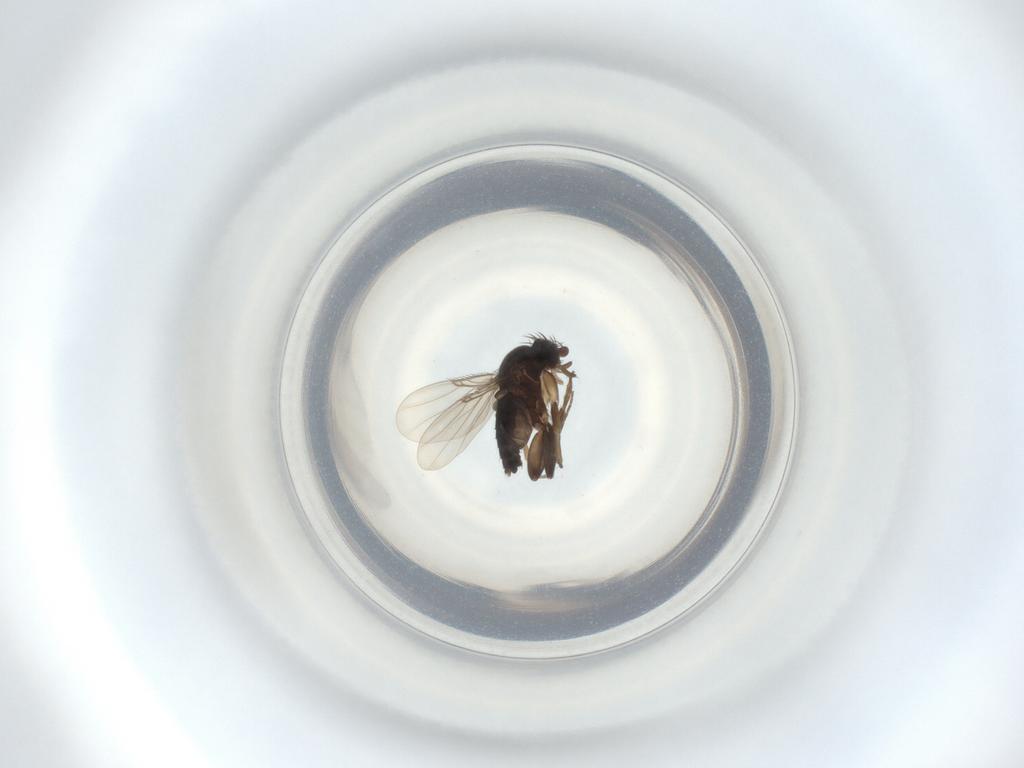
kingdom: Animalia
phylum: Arthropoda
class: Insecta
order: Diptera
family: Phoridae
